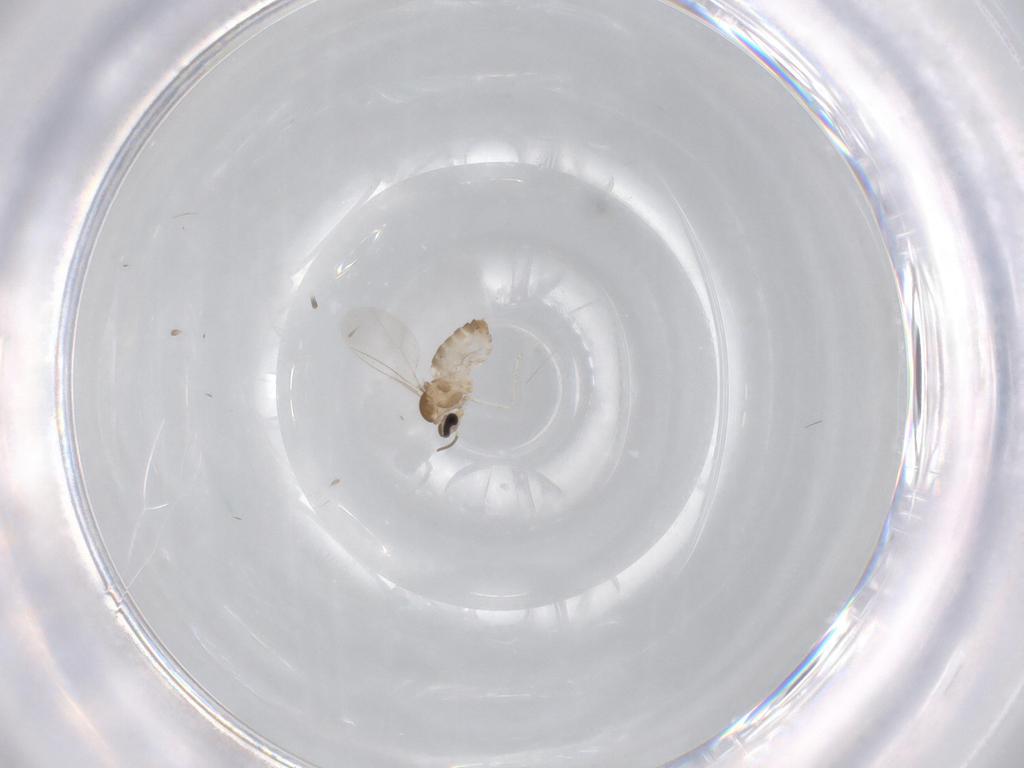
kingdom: Animalia
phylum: Arthropoda
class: Insecta
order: Diptera
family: Cecidomyiidae
